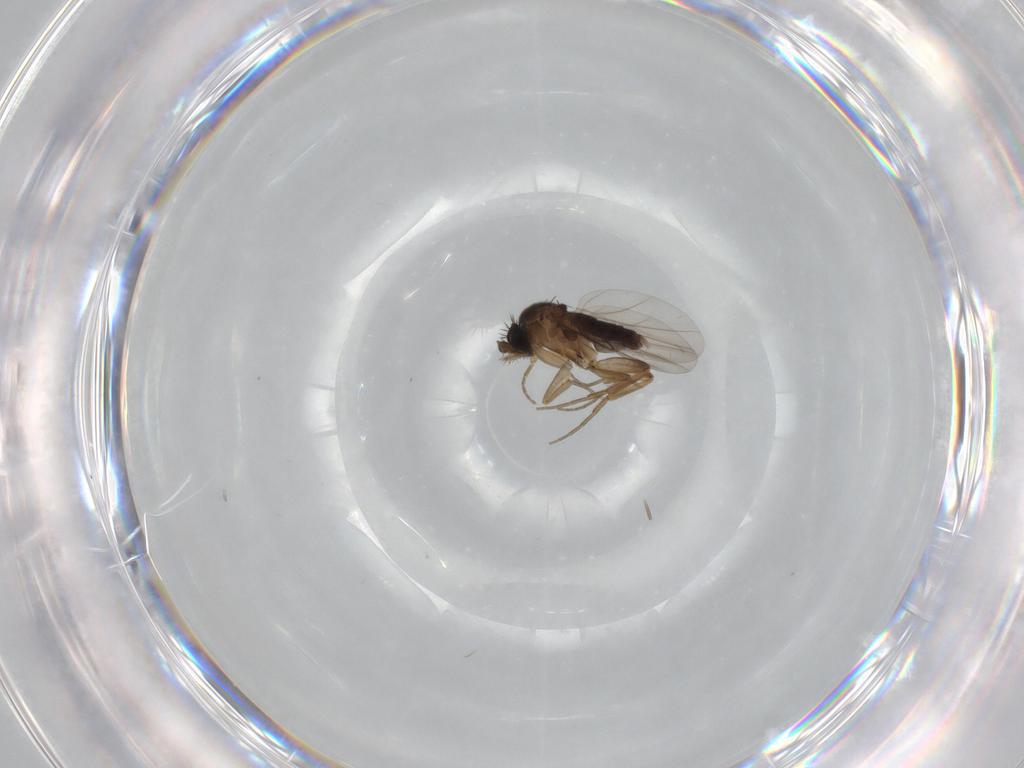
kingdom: Animalia
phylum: Arthropoda
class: Insecta
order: Diptera
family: Phoridae
